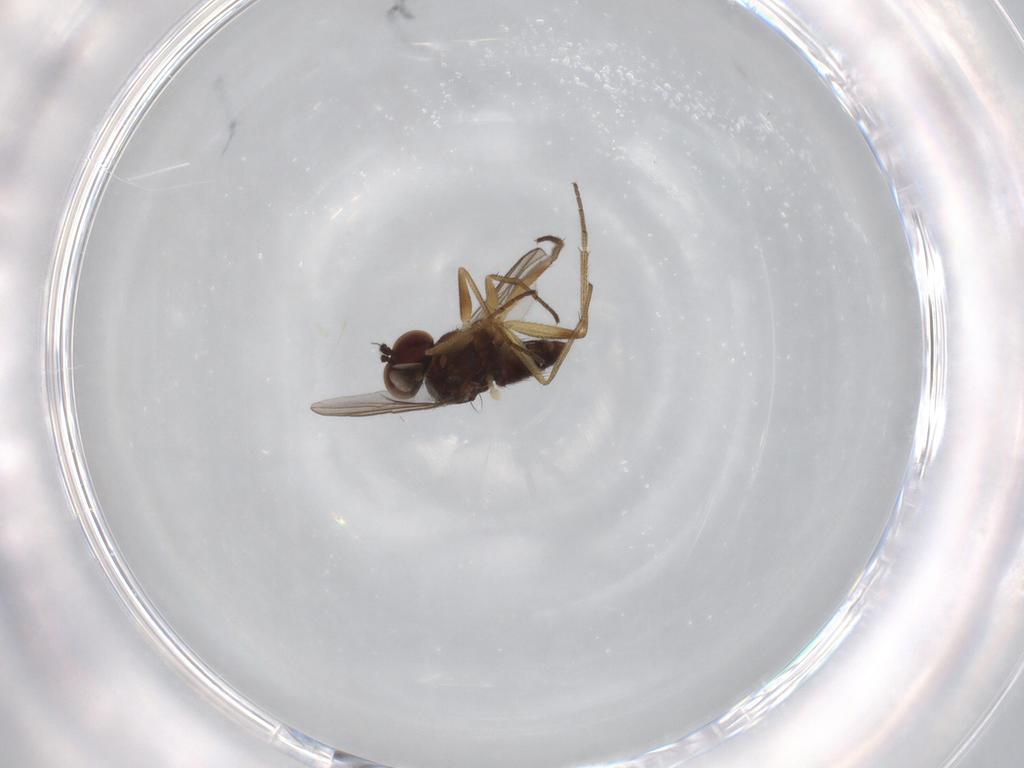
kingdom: Animalia
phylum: Arthropoda
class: Insecta
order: Diptera
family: Dolichopodidae
